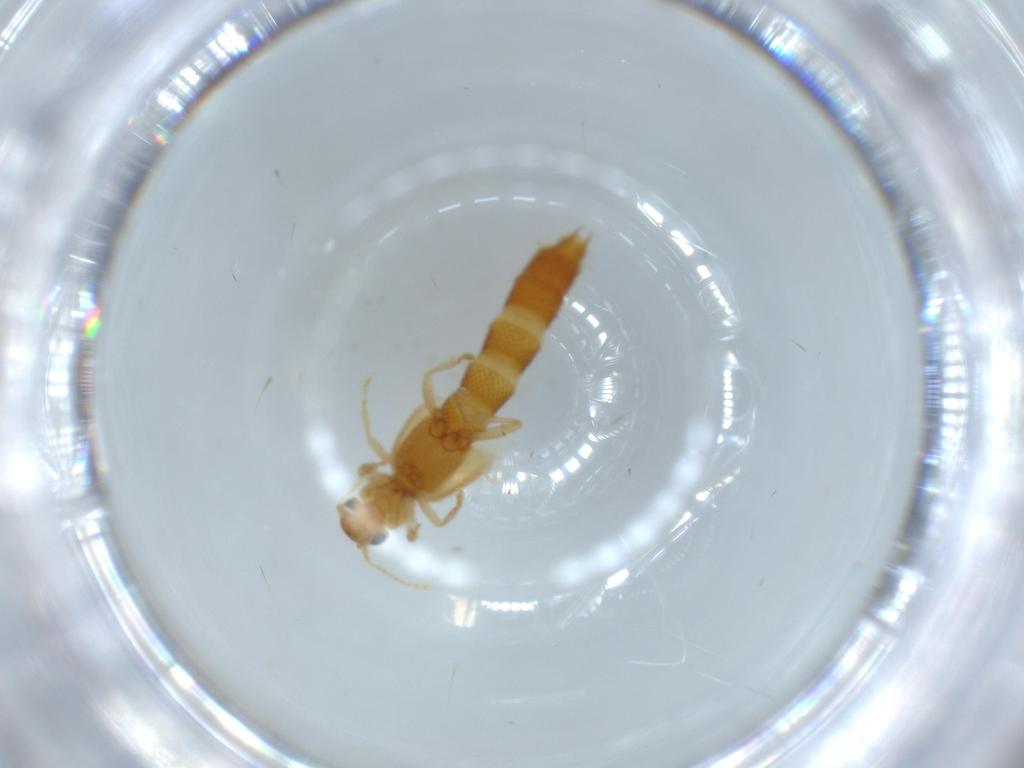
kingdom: Animalia
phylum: Arthropoda
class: Insecta
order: Coleoptera
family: Staphylinidae
